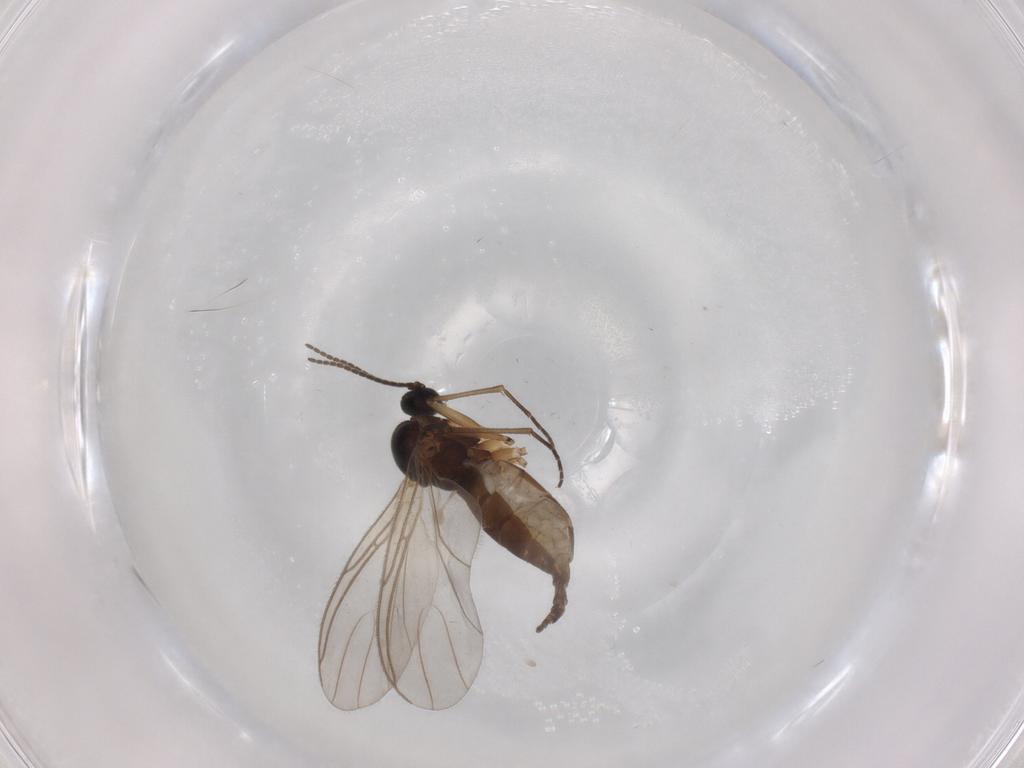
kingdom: Animalia
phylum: Arthropoda
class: Insecta
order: Diptera
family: Sciaridae
